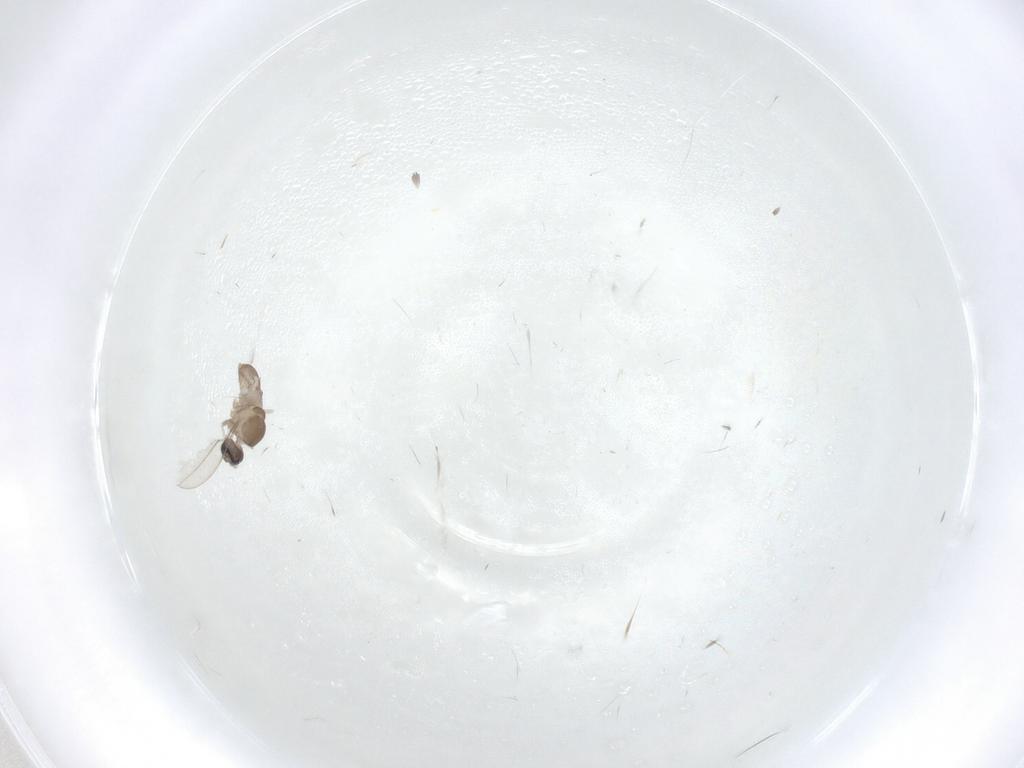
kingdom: Animalia
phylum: Arthropoda
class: Insecta
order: Diptera
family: Cecidomyiidae
